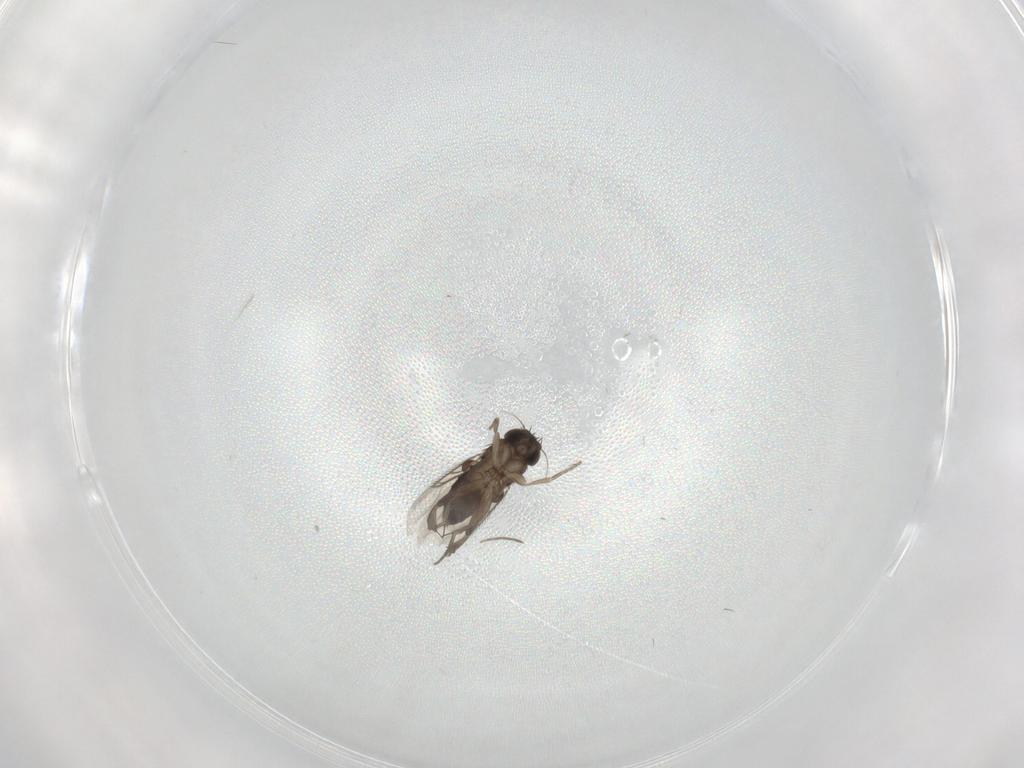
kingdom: Animalia
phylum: Arthropoda
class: Insecta
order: Diptera
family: Phoridae
